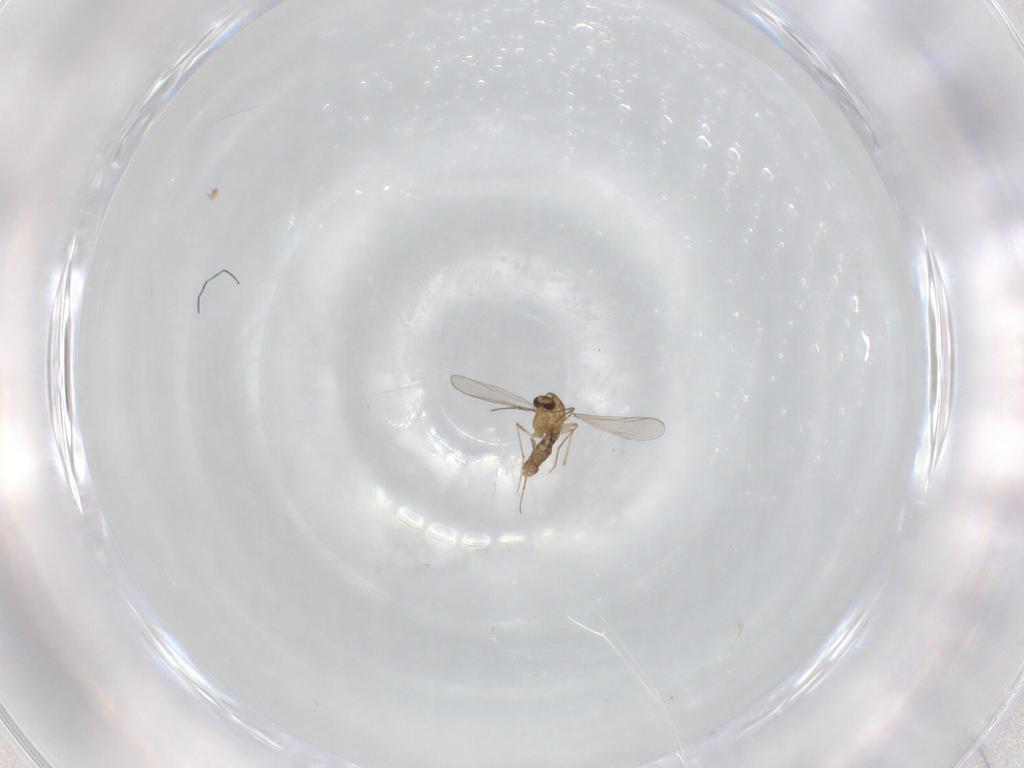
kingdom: Animalia
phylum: Arthropoda
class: Insecta
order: Diptera
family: Chironomidae
